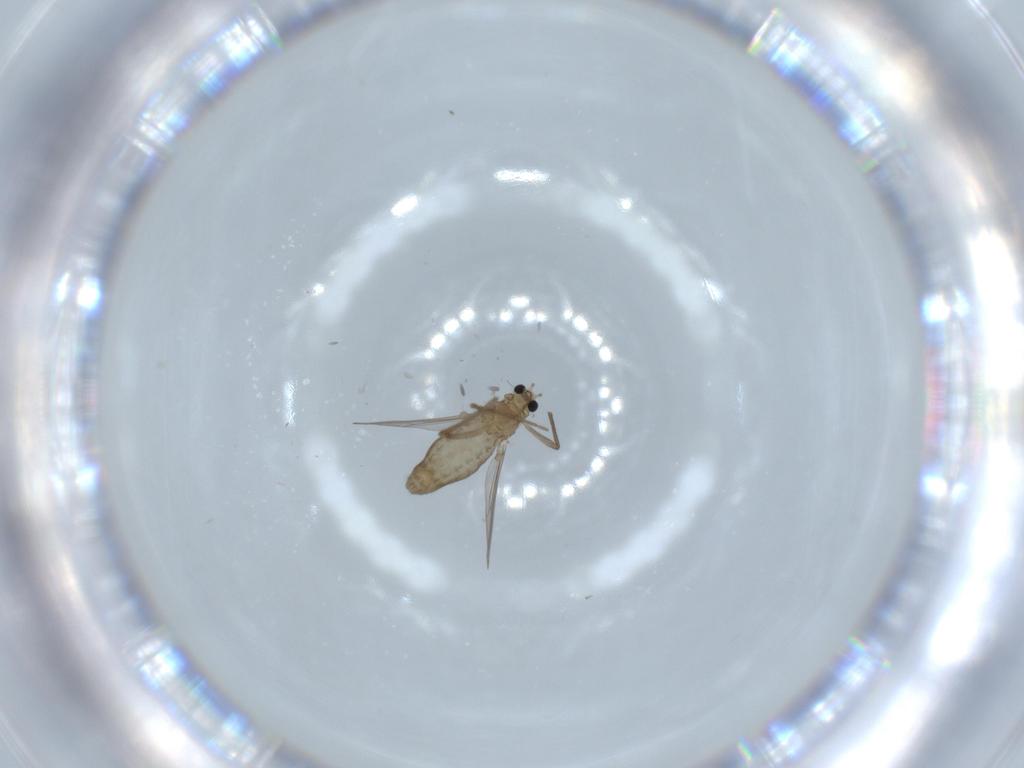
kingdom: Animalia
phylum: Arthropoda
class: Insecta
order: Diptera
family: Chironomidae
